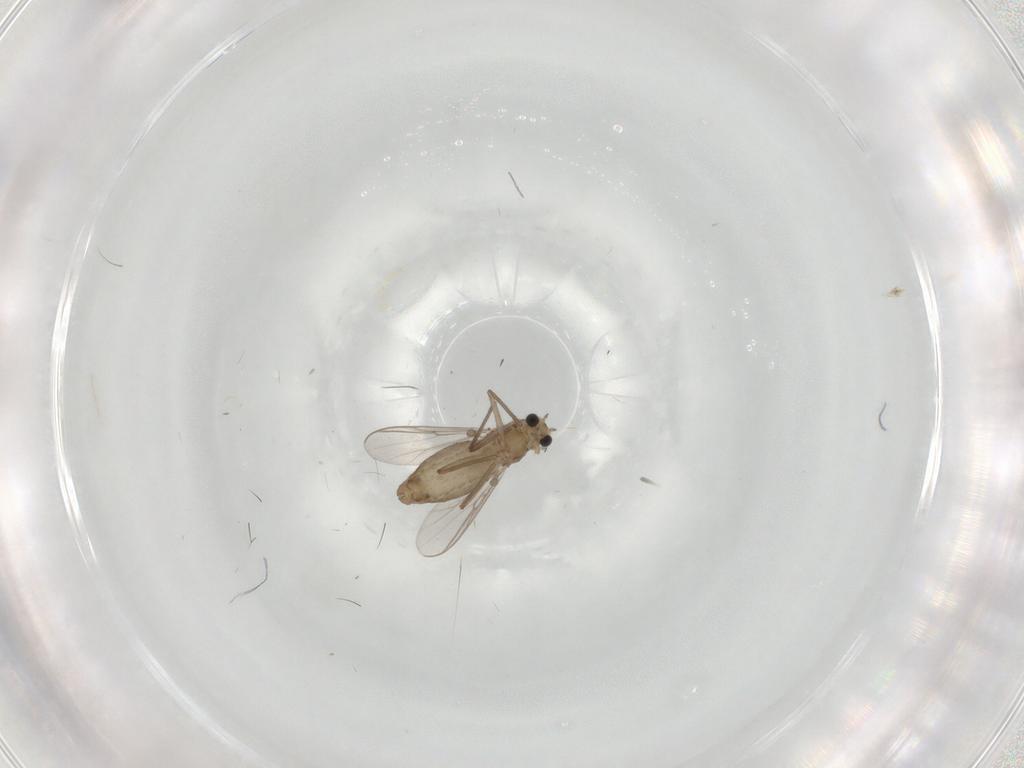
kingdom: Animalia
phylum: Arthropoda
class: Insecta
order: Diptera
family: Chironomidae
